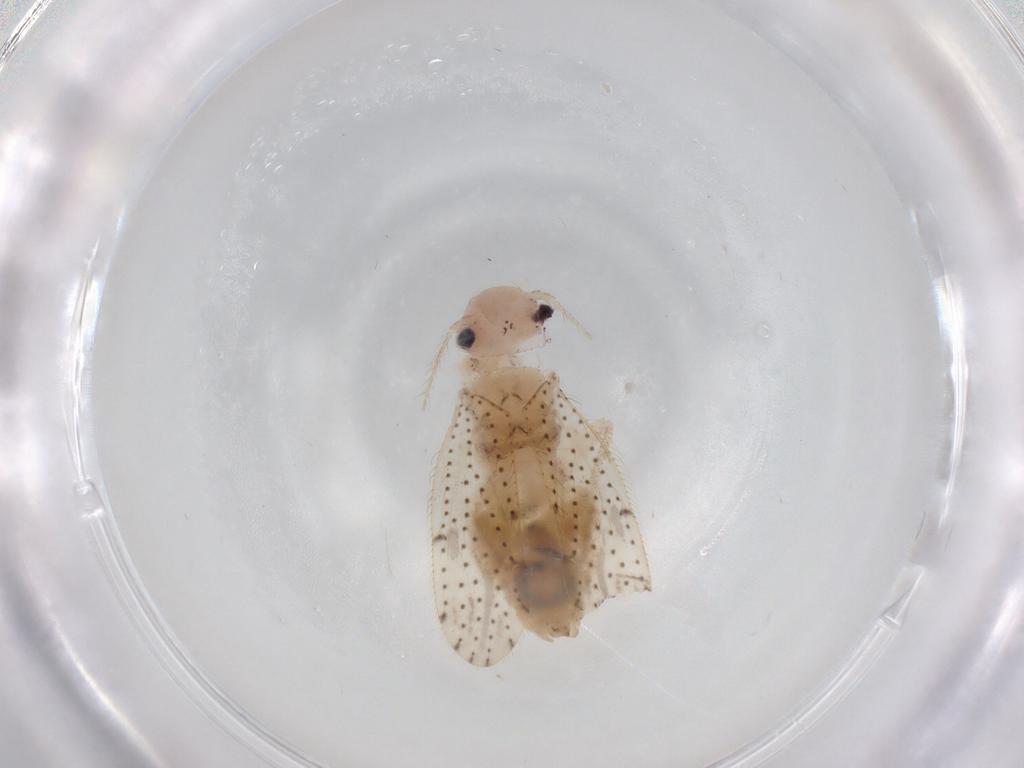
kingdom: Animalia
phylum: Arthropoda
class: Insecta
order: Psocodea
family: Myopsocidae
